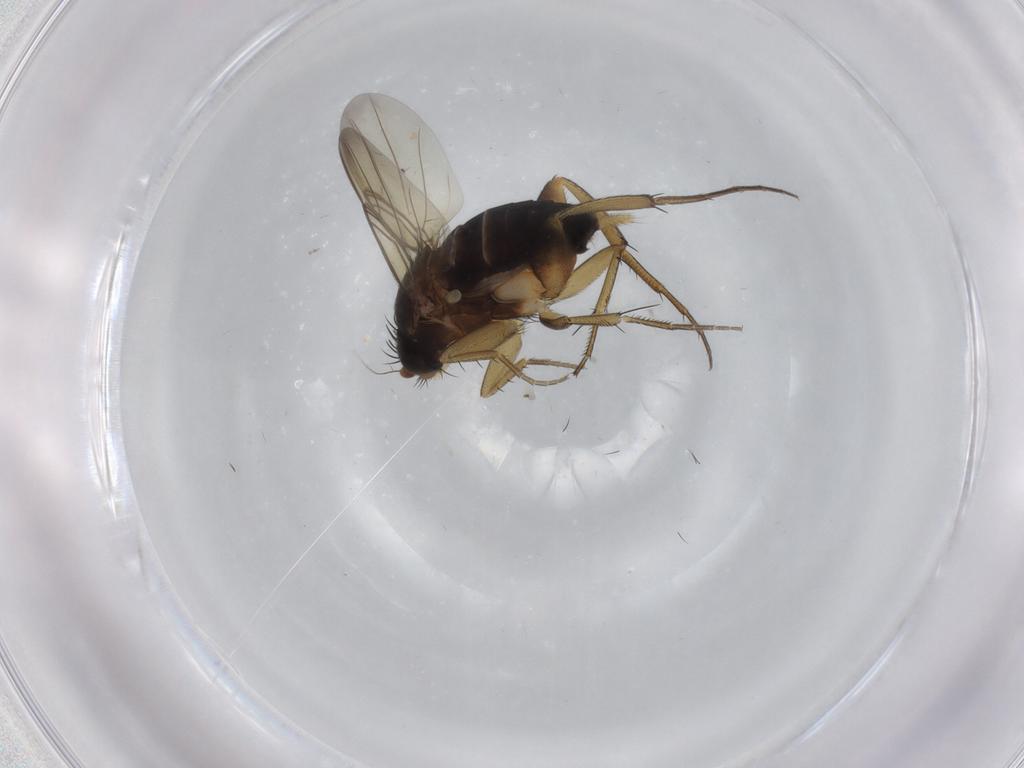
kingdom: Animalia
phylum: Arthropoda
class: Insecta
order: Diptera
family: Phoridae
